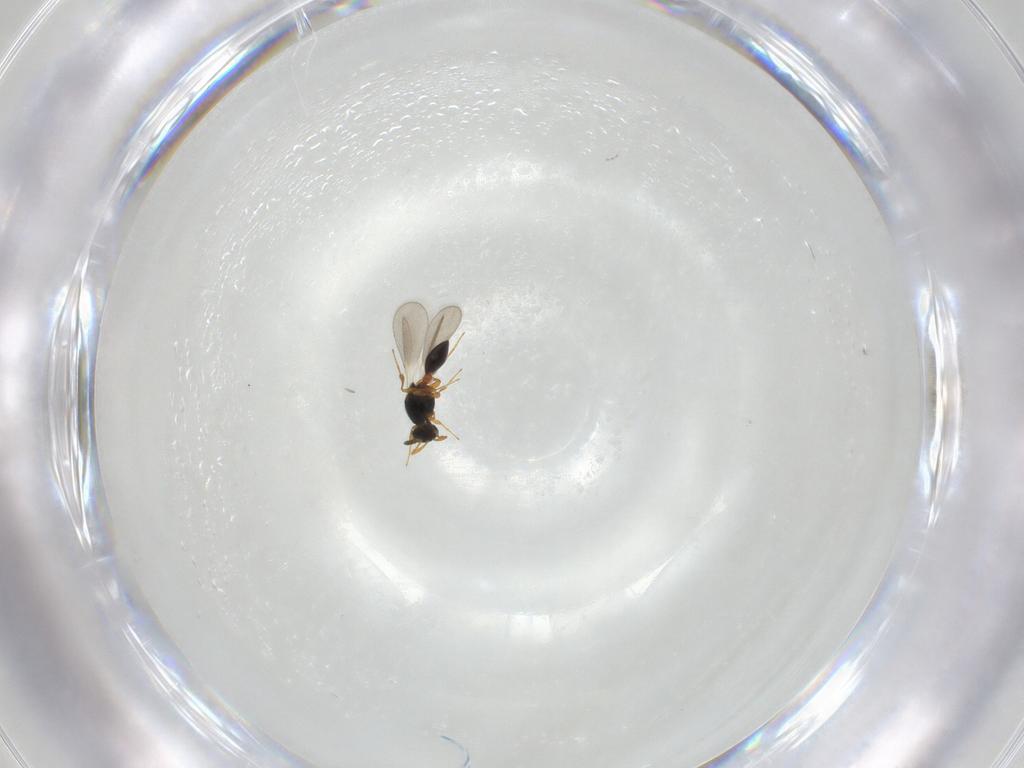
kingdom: Animalia
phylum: Arthropoda
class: Insecta
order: Hymenoptera
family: Platygastridae
